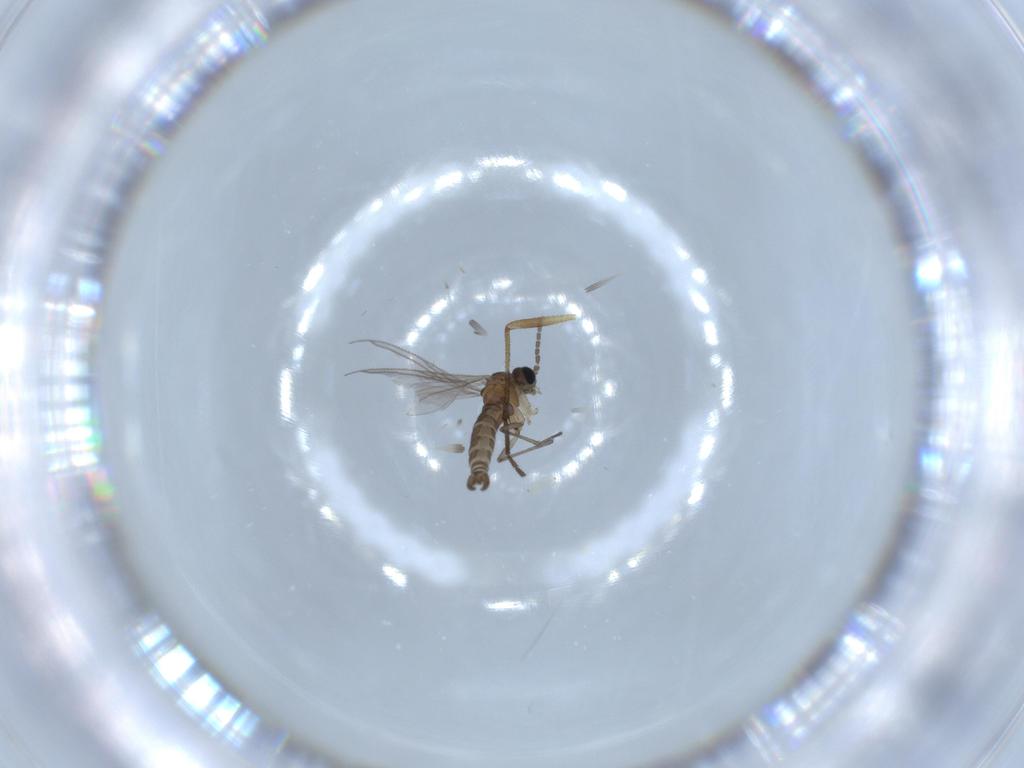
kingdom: Animalia
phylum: Arthropoda
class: Insecta
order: Diptera
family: Sciaridae
